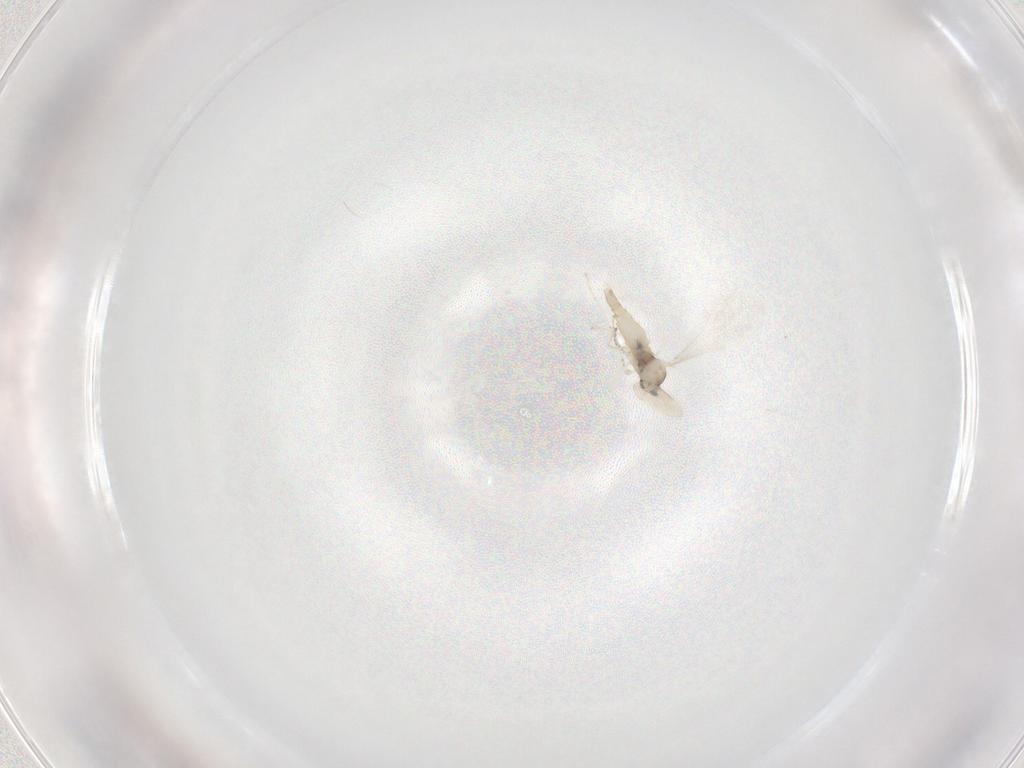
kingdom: Animalia
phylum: Arthropoda
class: Insecta
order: Diptera
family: Cecidomyiidae
